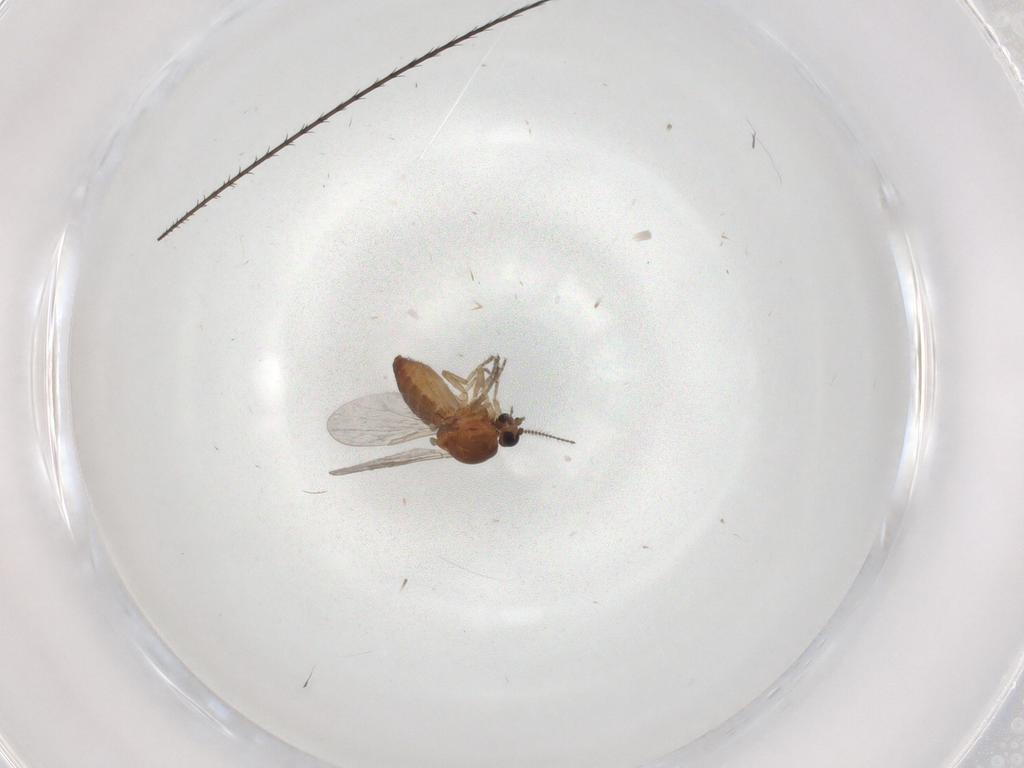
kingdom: Animalia
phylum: Arthropoda
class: Insecta
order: Diptera
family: Ceratopogonidae
